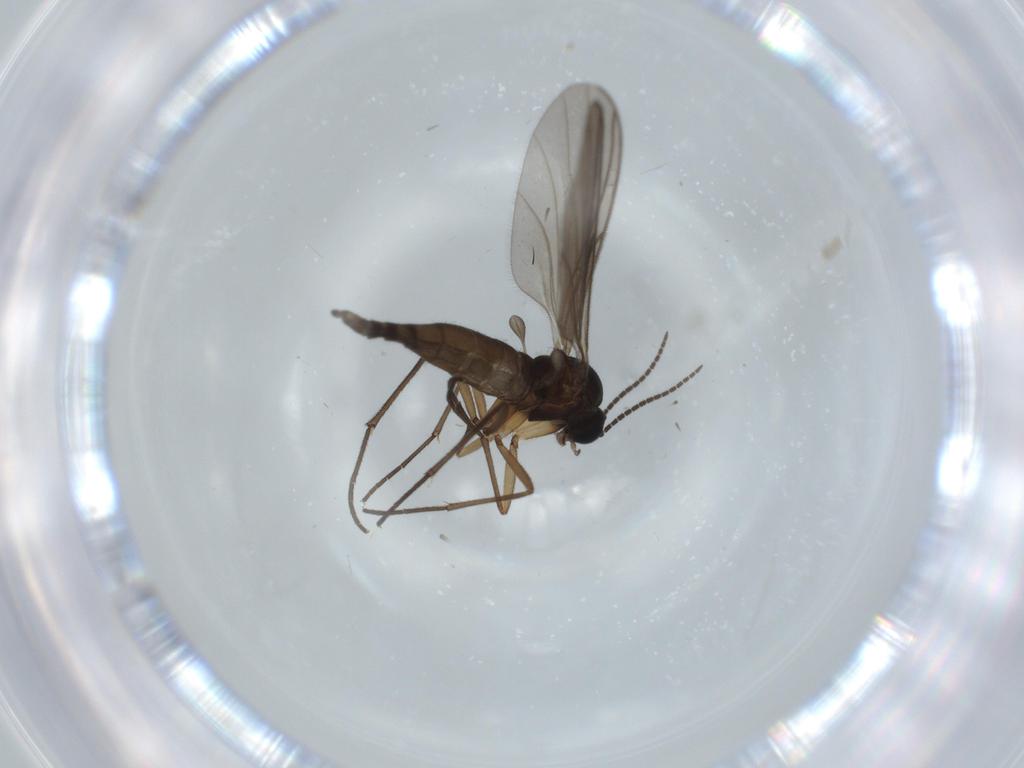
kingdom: Animalia
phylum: Arthropoda
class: Insecta
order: Diptera
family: Sciaridae
